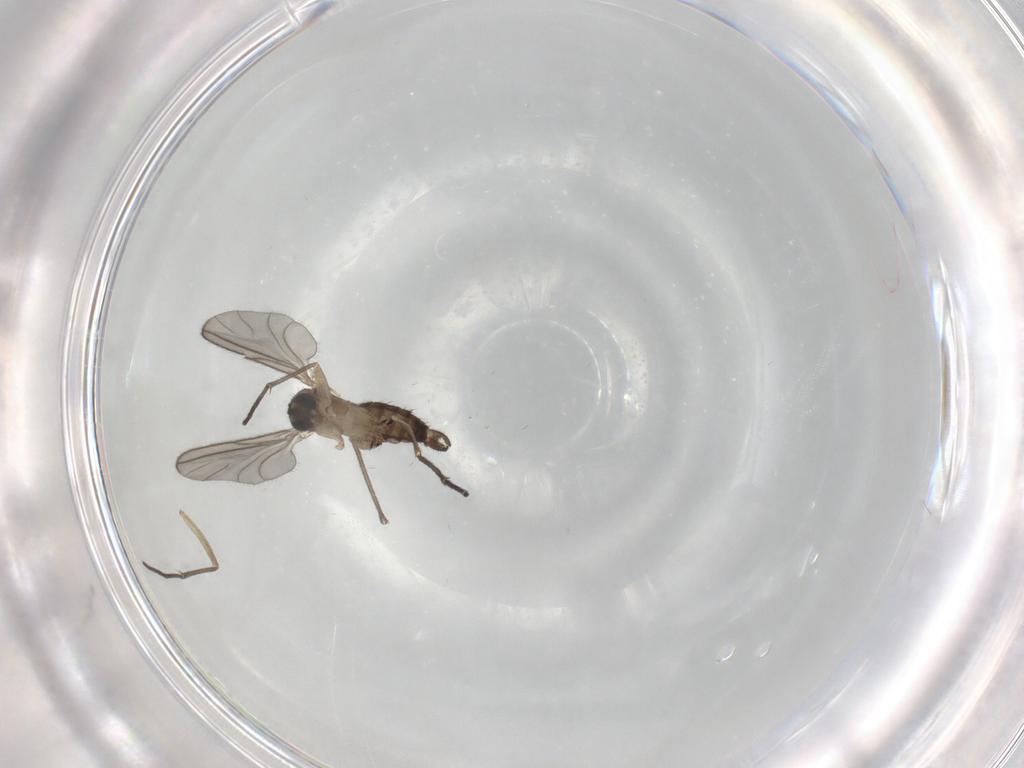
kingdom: Animalia
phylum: Arthropoda
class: Insecta
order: Diptera
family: Sciaridae
